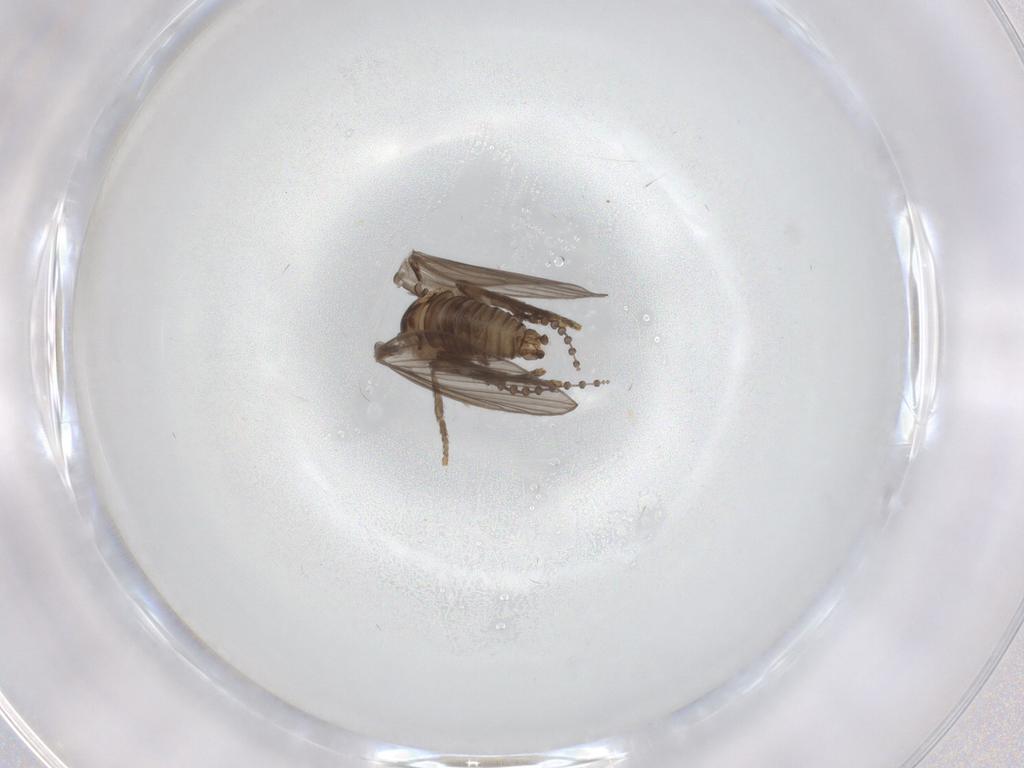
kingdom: Animalia
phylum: Arthropoda
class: Insecta
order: Diptera
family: Psychodidae
